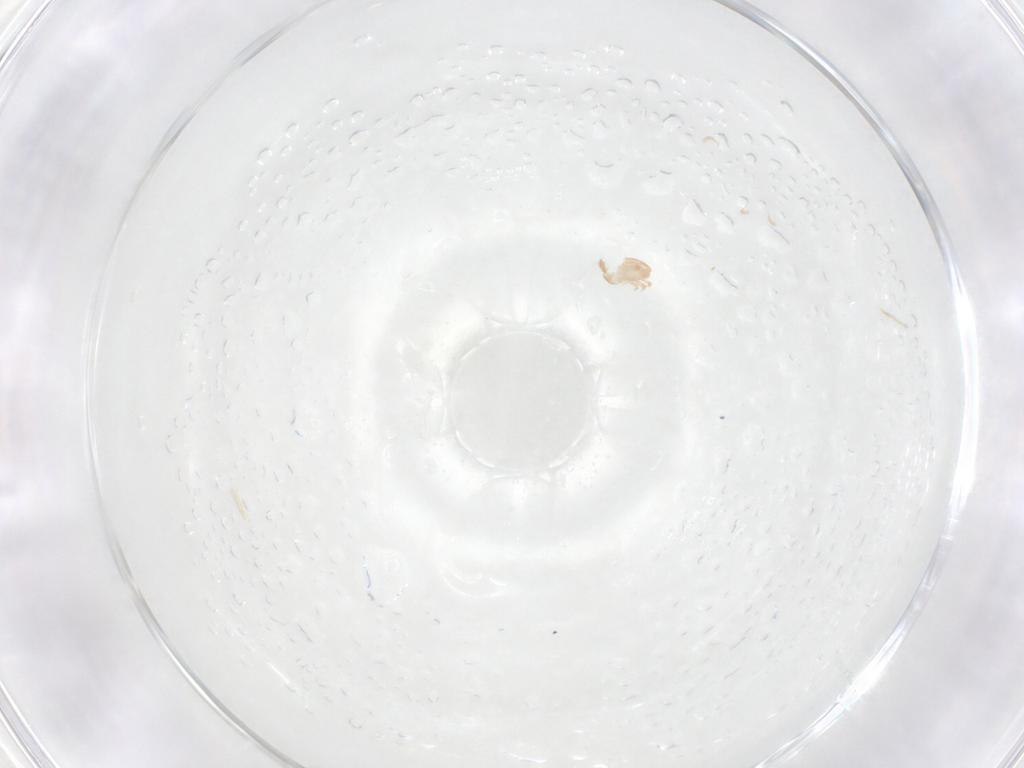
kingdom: Animalia
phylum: Arthropoda
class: Arachnida
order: Mesostigmata
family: Ascidae
